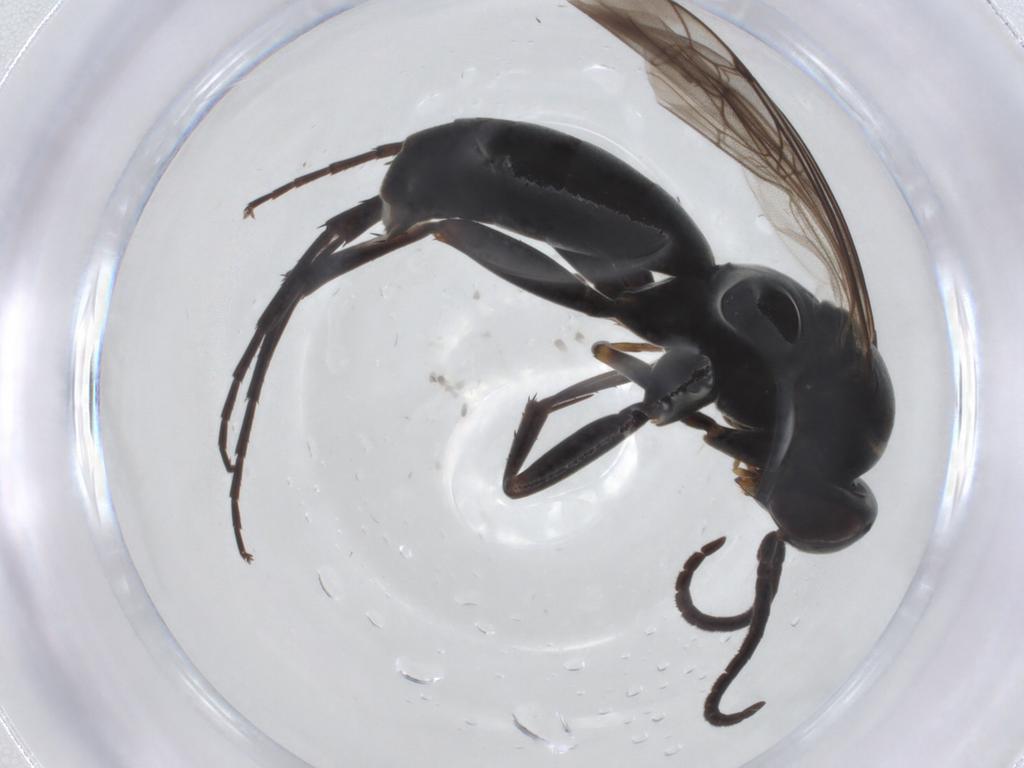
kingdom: Animalia
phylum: Arthropoda
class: Insecta
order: Hymenoptera
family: Pompilidae
